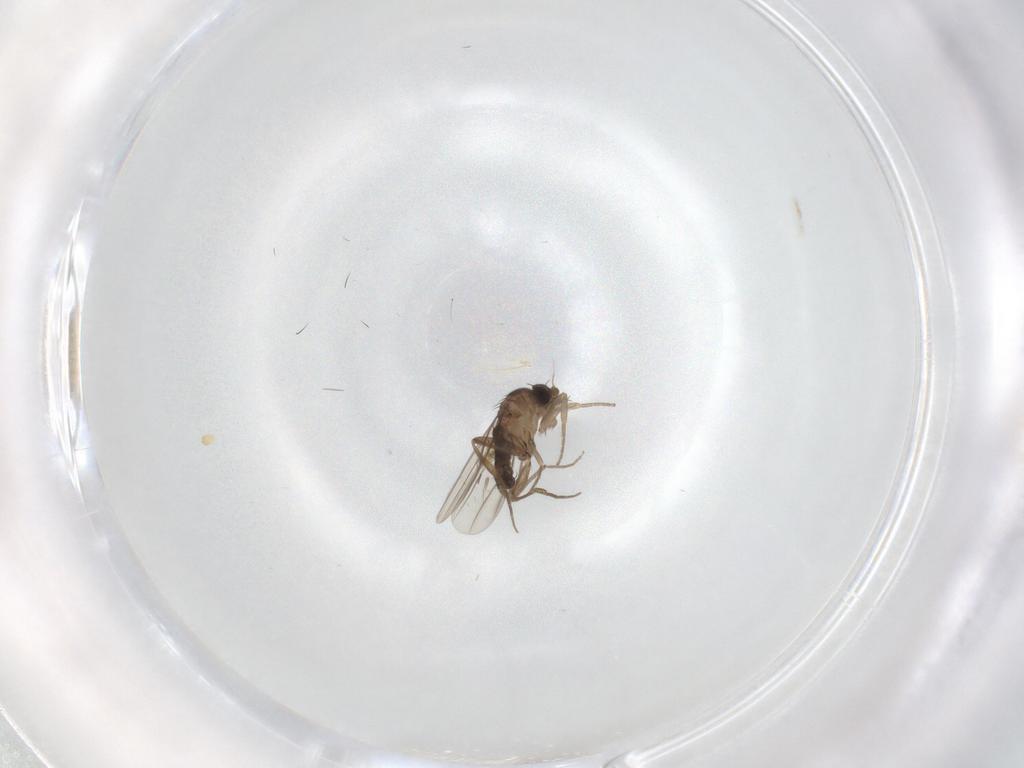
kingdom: Animalia
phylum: Arthropoda
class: Insecta
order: Diptera
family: Phoridae
